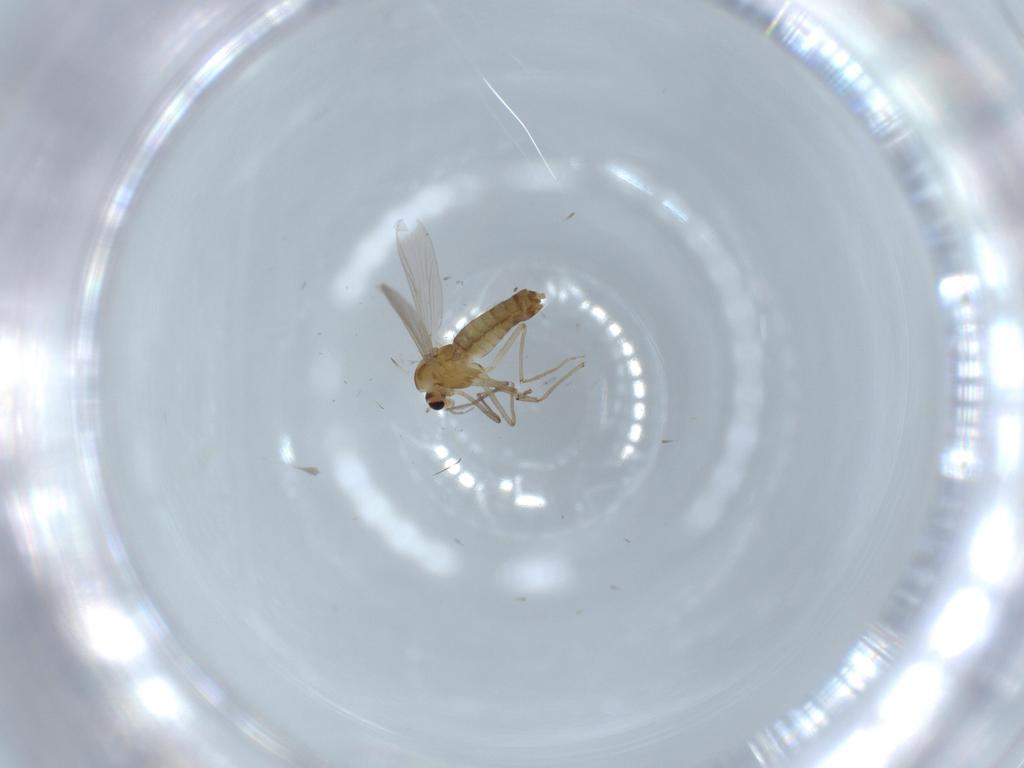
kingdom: Animalia
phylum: Arthropoda
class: Insecta
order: Diptera
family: Chironomidae
